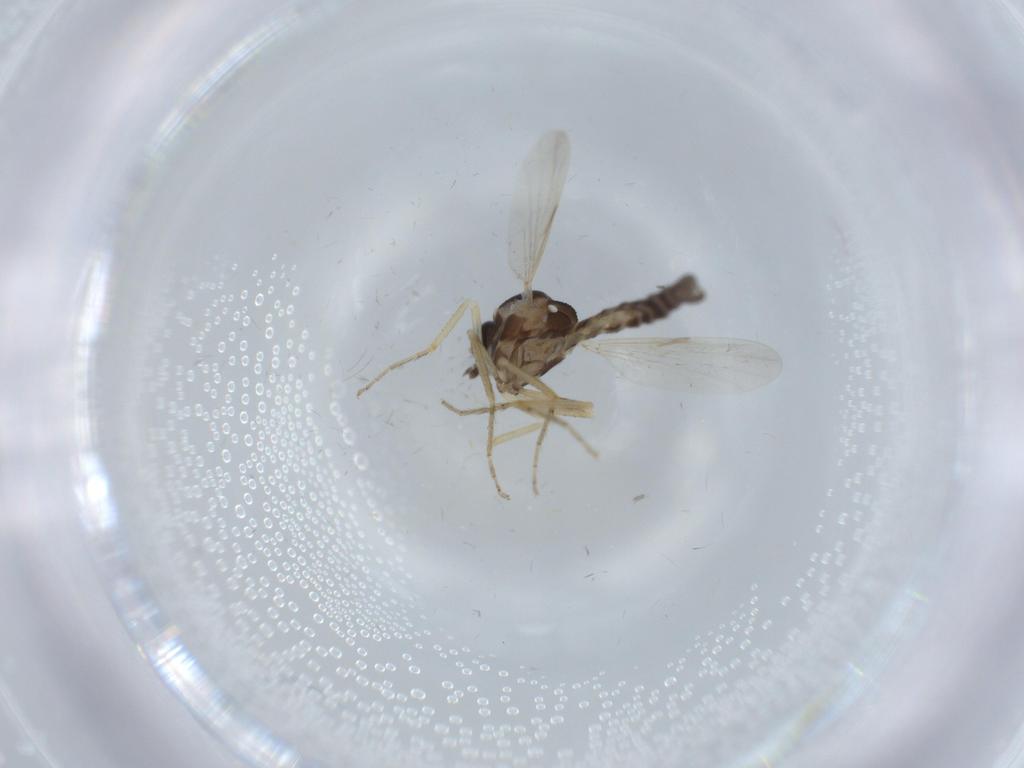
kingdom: Animalia
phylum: Arthropoda
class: Insecta
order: Diptera
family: Ceratopogonidae
